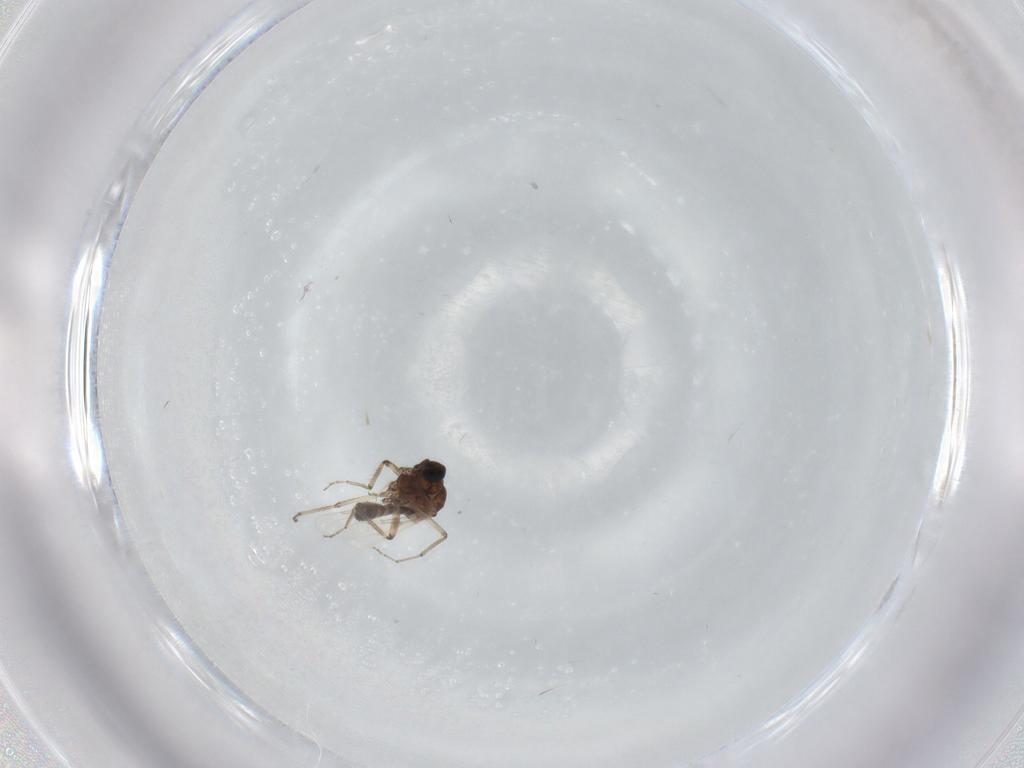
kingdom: Animalia
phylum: Arthropoda
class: Insecta
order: Diptera
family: Ceratopogonidae
